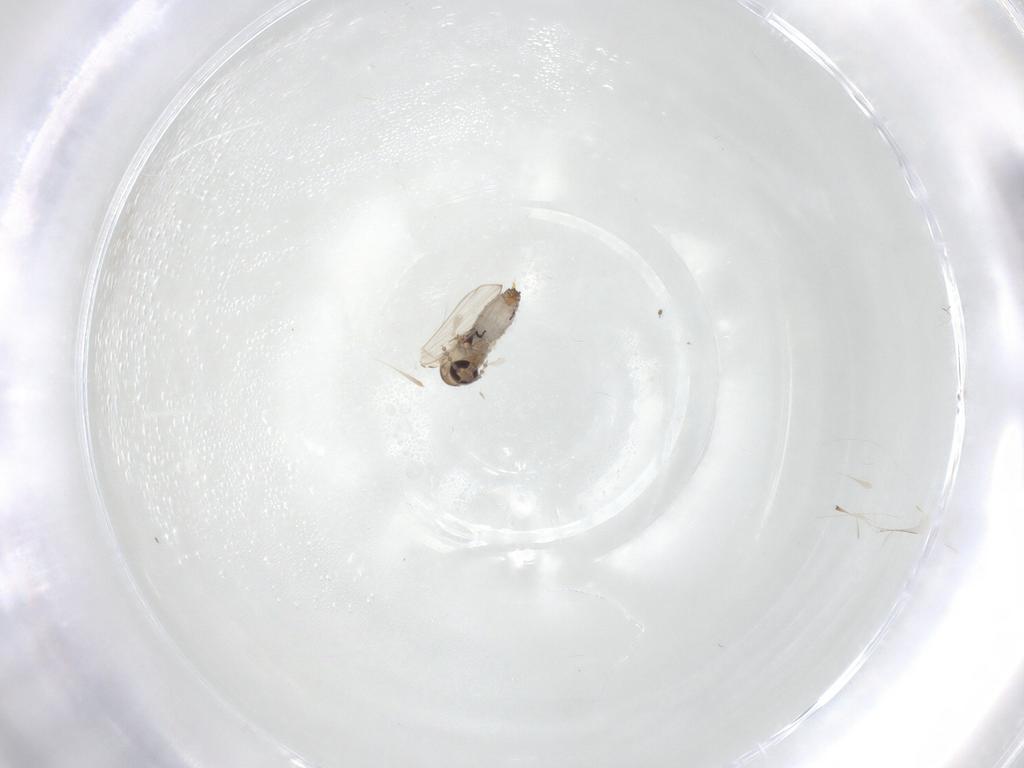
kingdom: Animalia
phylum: Arthropoda
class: Insecta
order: Diptera
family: Psychodidae
